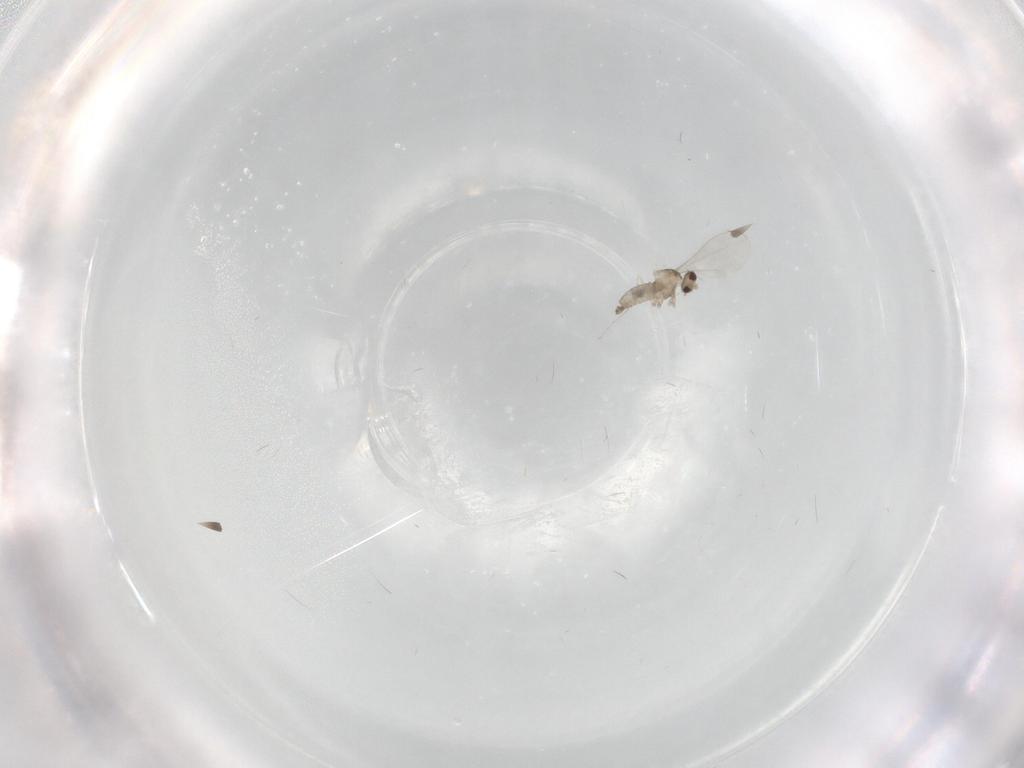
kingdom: Animalia
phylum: Arthropoda
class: Insecta
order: Diptera
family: Cecidomyiidae
